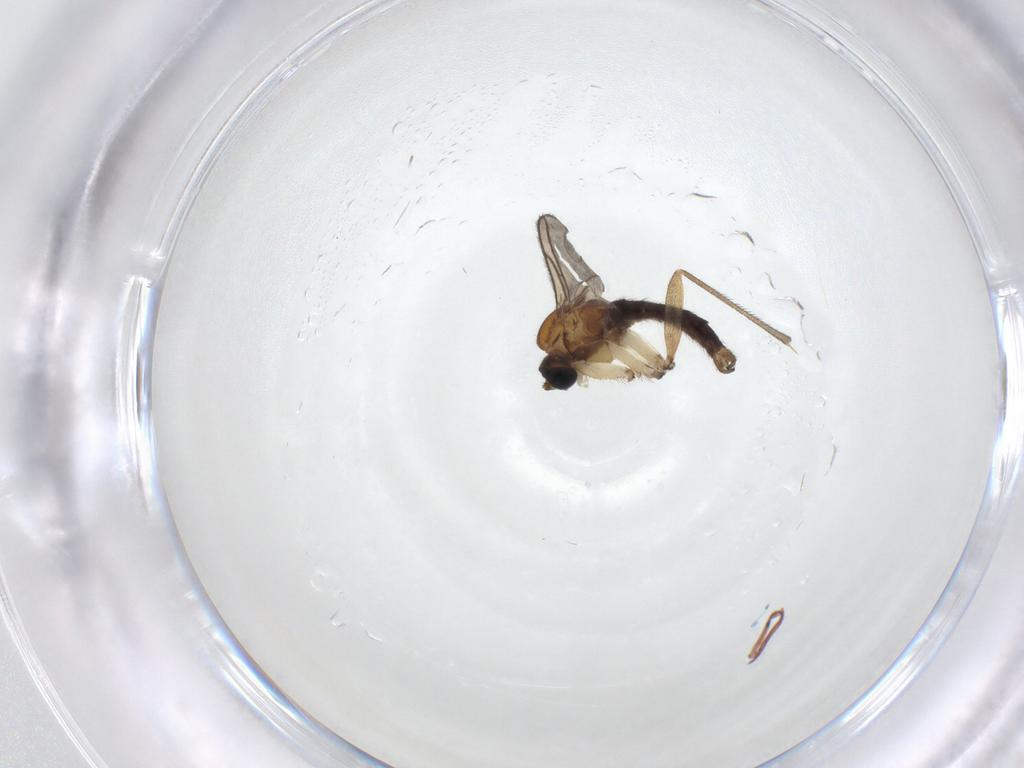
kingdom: Animalia
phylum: Arthropoda
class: Insecta
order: Diptera
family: Sciaridae
